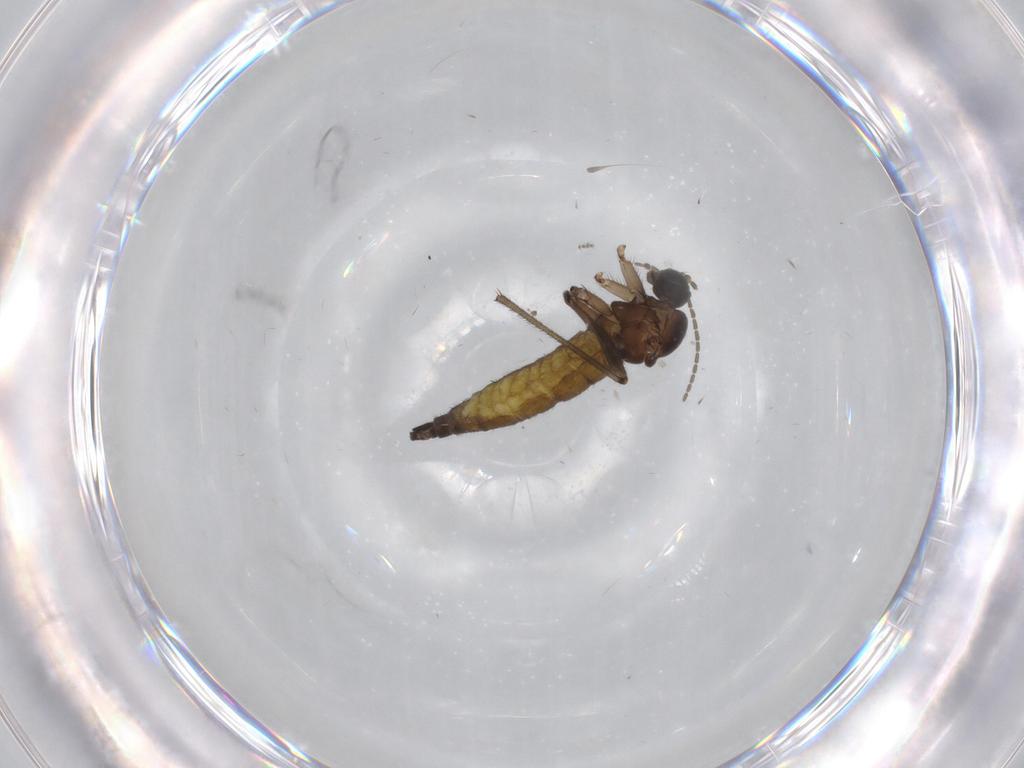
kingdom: Animalia
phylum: Arthropoda
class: Insecta
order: Diptera
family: Sciaridae
